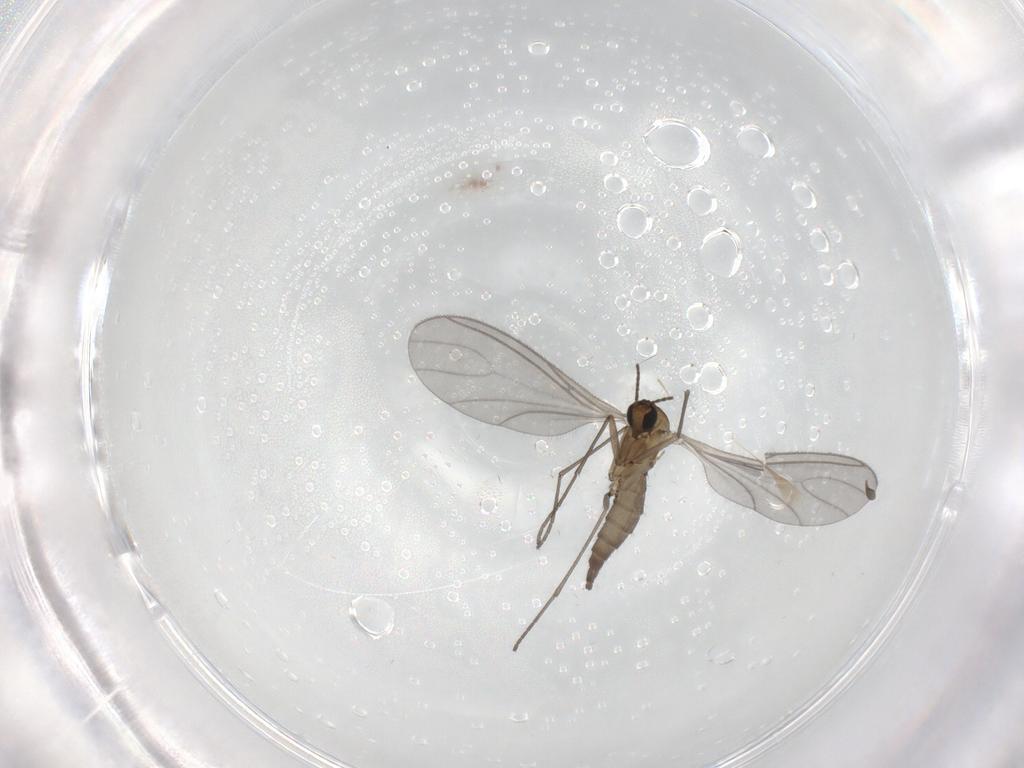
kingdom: Animalia
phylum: Arthropoda
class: Insecta
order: Diptera
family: Sciaridae
